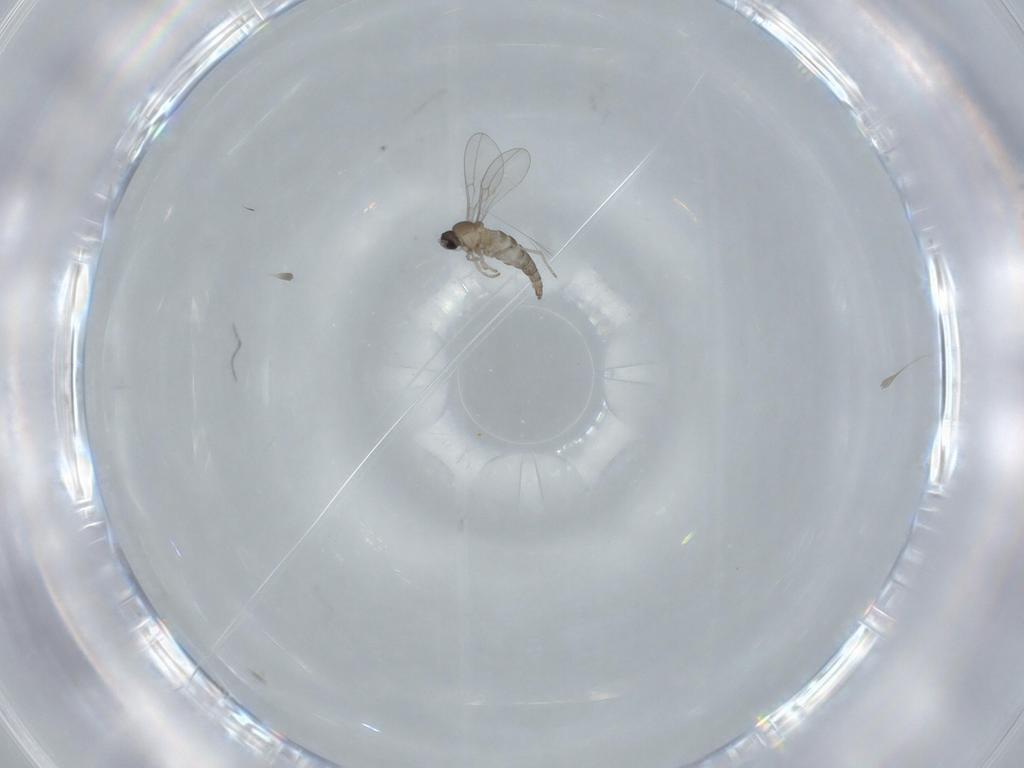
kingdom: Animalia
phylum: Arthropoda
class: Insecta
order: Diptera
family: Cecidomyiidae
